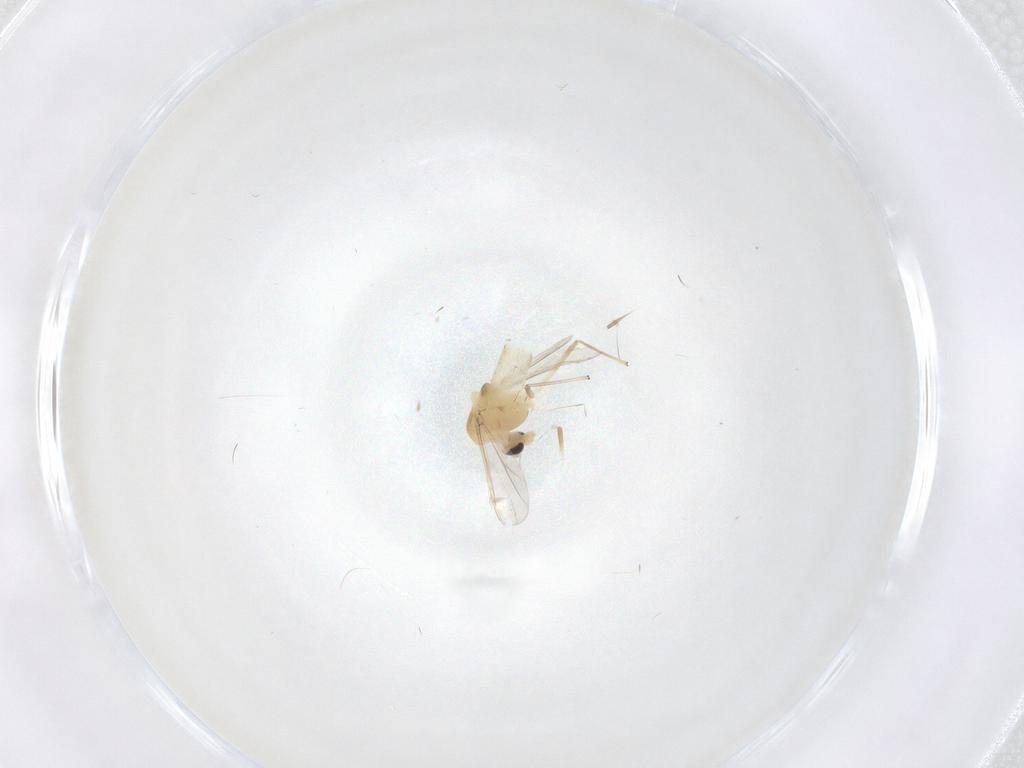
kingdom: Animalia
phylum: Arthropoda
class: Insecta
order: Diptera
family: Chironomidae
